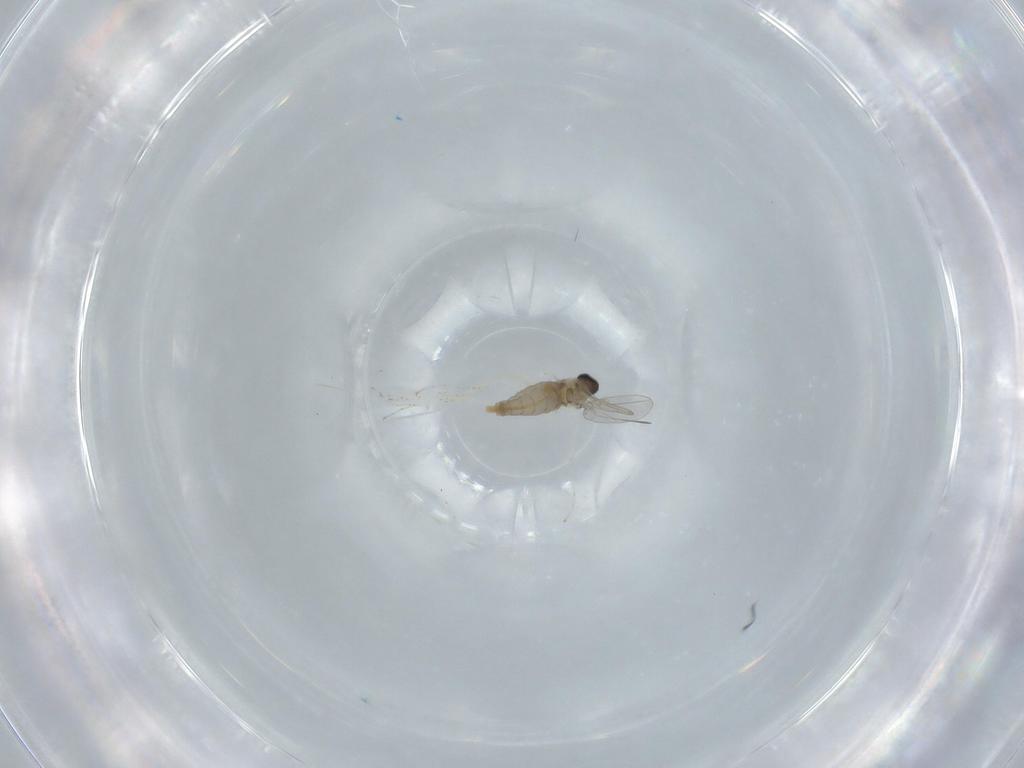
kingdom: Animalia
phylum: Arthropoda
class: Insecta
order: Diptera
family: Cecidomyiidae
